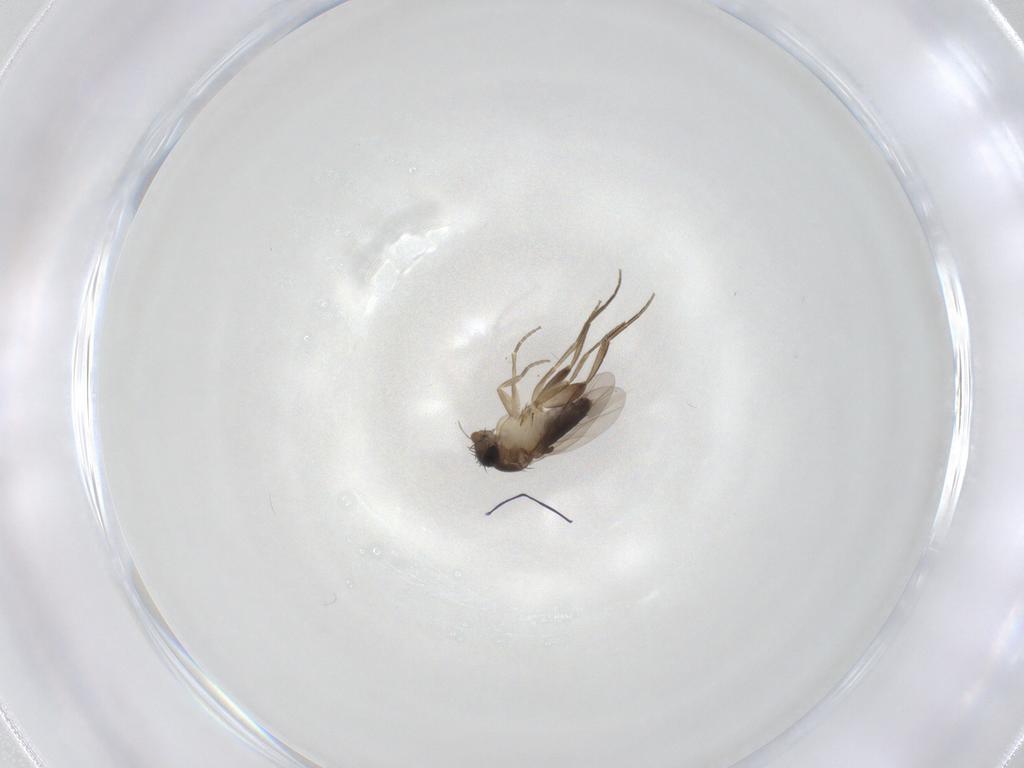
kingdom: Animalia
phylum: Arthropoda
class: Insecta
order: Diptera
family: Phoridae
